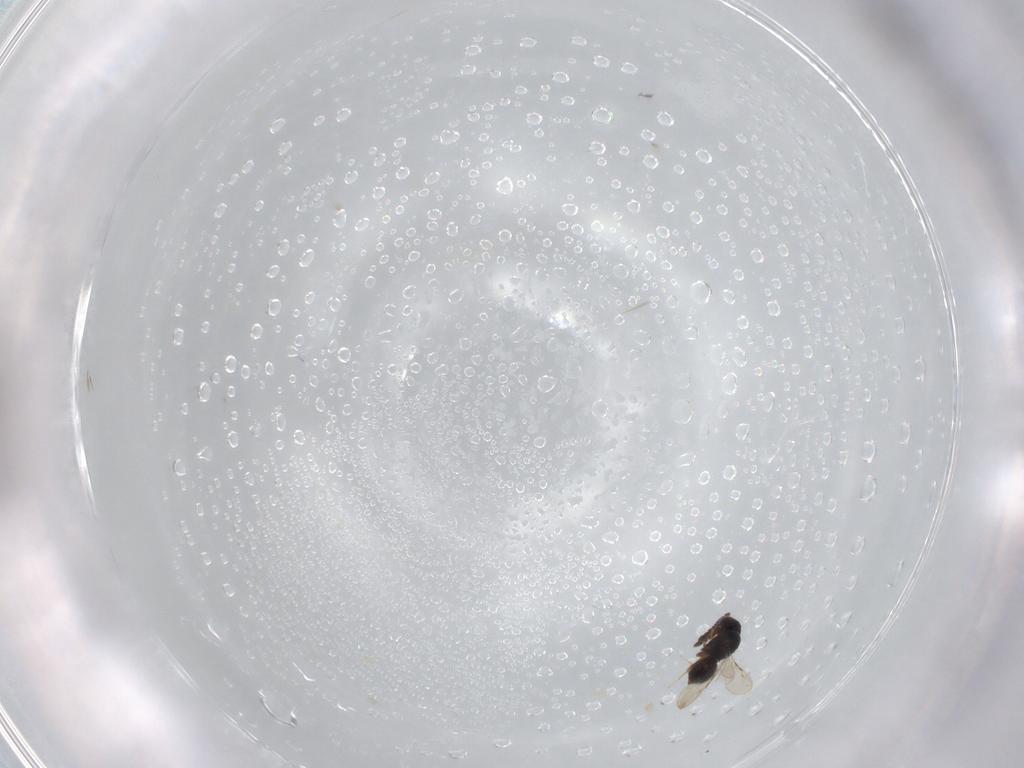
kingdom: Animalia
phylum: Arthropoda
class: Insecta
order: Hymenoptera
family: Ceraphronidae
